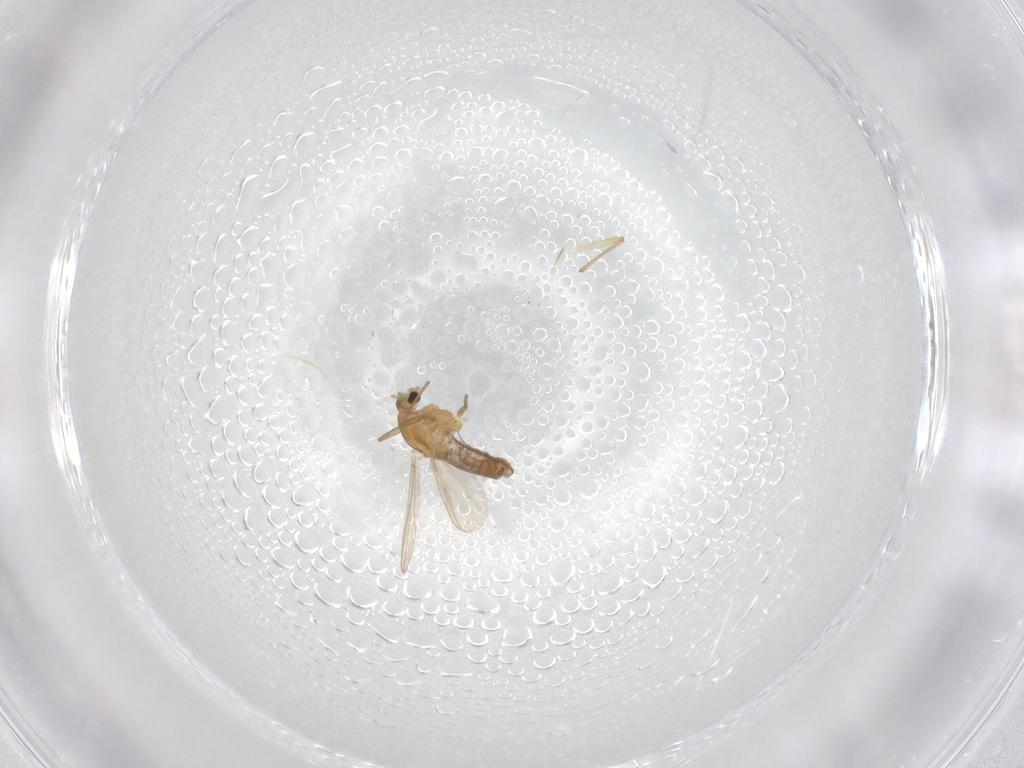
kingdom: Animalia
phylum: Arthropoda
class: Insecta
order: Diptera
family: Chironomidae
